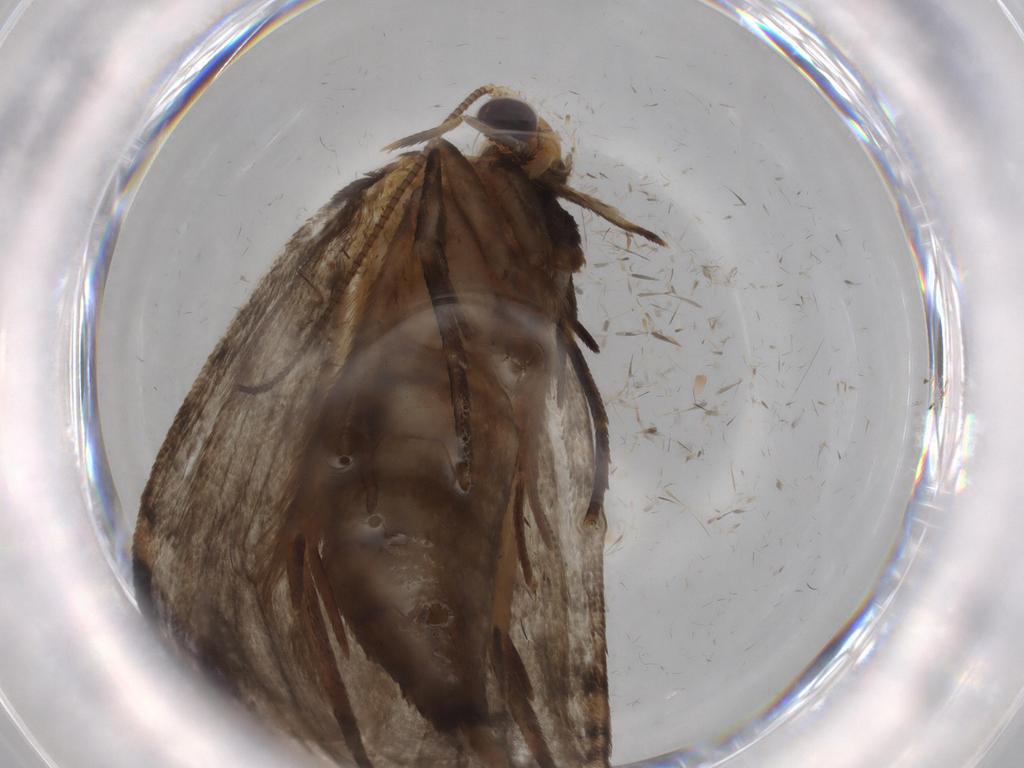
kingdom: Animalia
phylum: Arthropoda
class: Insecta
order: Lepidoptera
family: Tineidae
